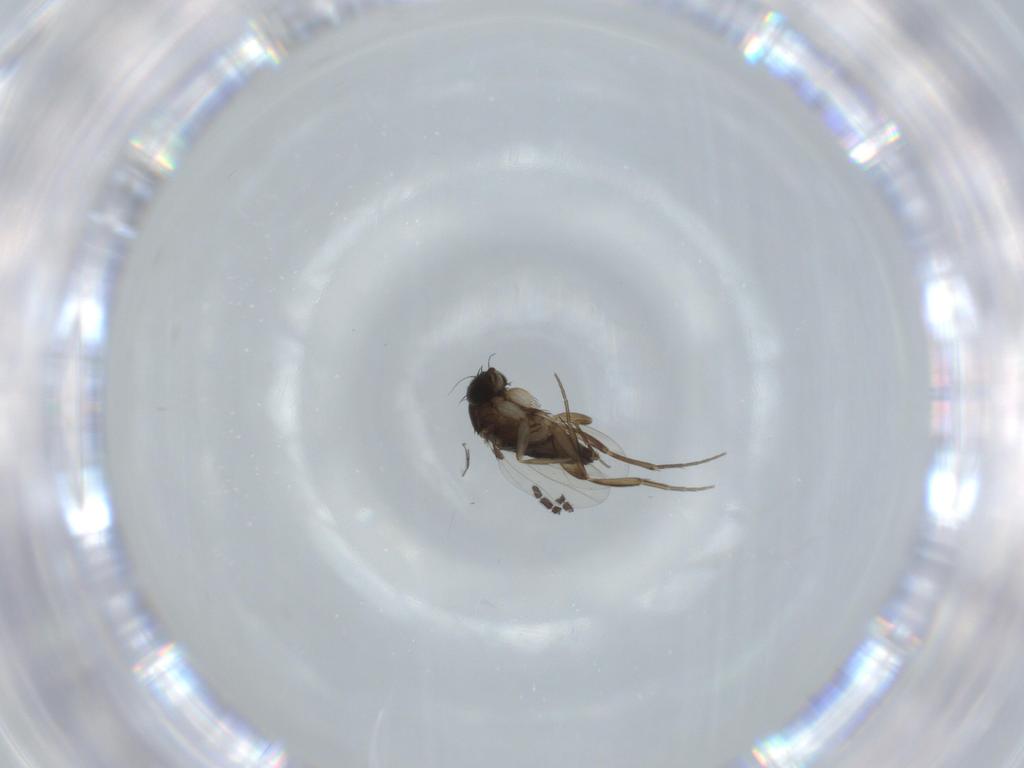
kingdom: Animalia
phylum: Arthropoda
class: Insecta
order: Diptera
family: Phoridae
